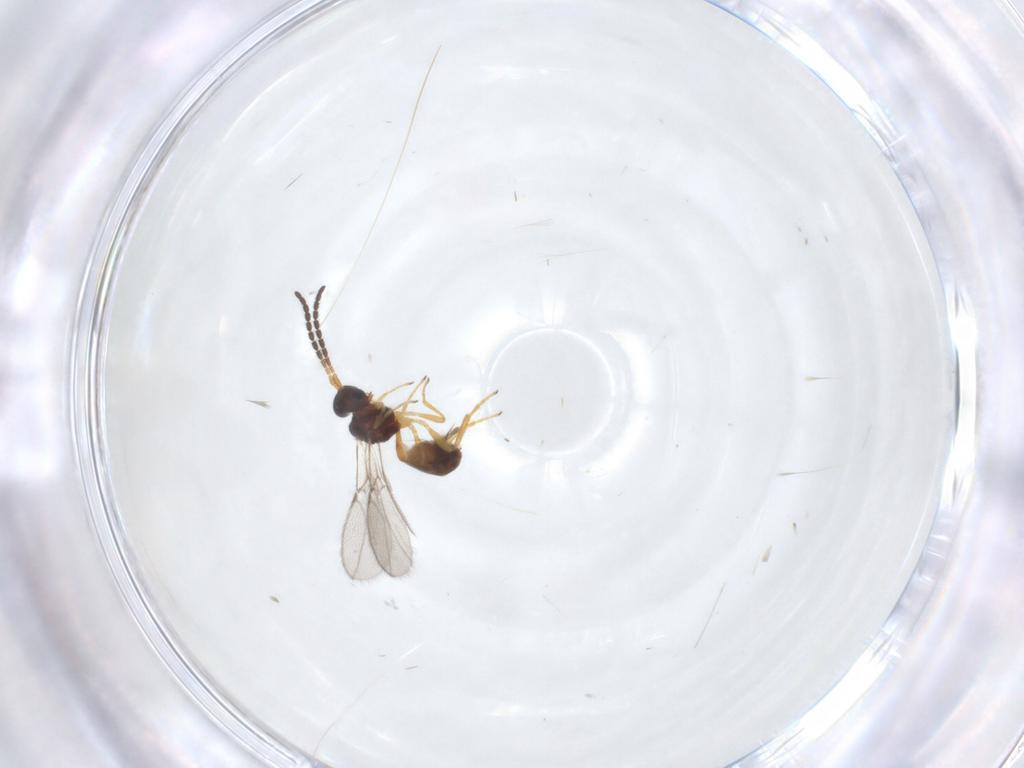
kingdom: Animalia
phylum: Arthropoda
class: Insecta
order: Hymenoptera
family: Braconidae
